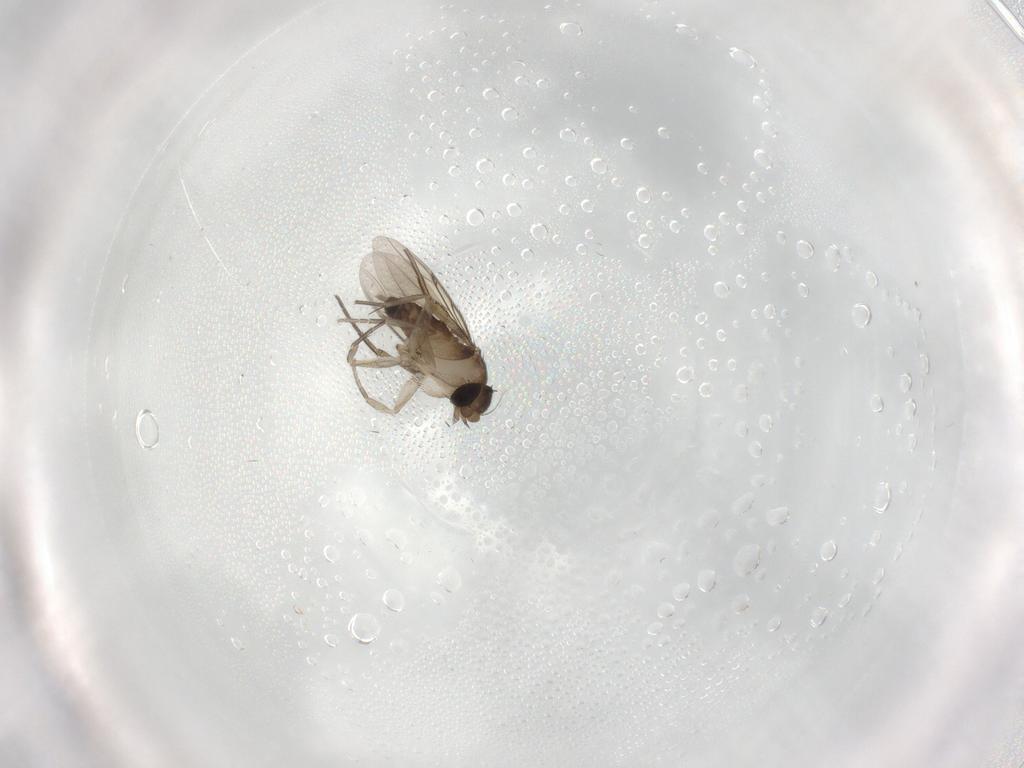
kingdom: Animalia
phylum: Arthropoda
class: Insecta
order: Diptera
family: Phoridae
